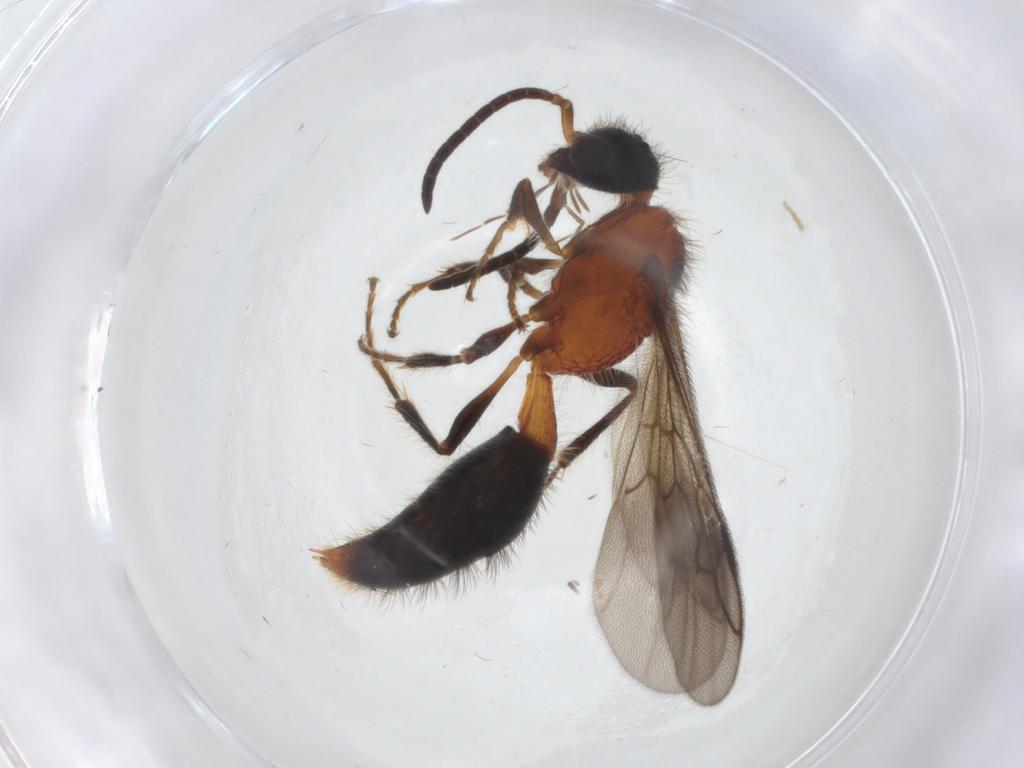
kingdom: Animalia
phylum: Arthropoda
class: Insecta
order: Hymenoptera
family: Mutillidae
